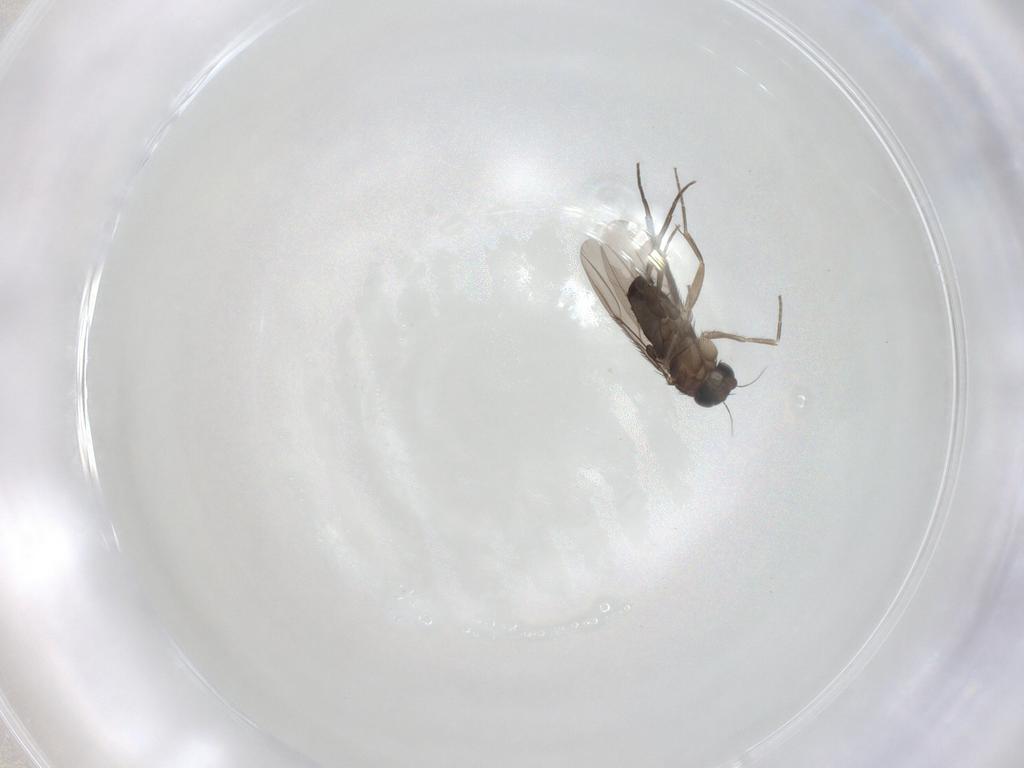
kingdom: Animalia
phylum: Arthropoda
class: Insecta
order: Diptera
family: Phoridae
